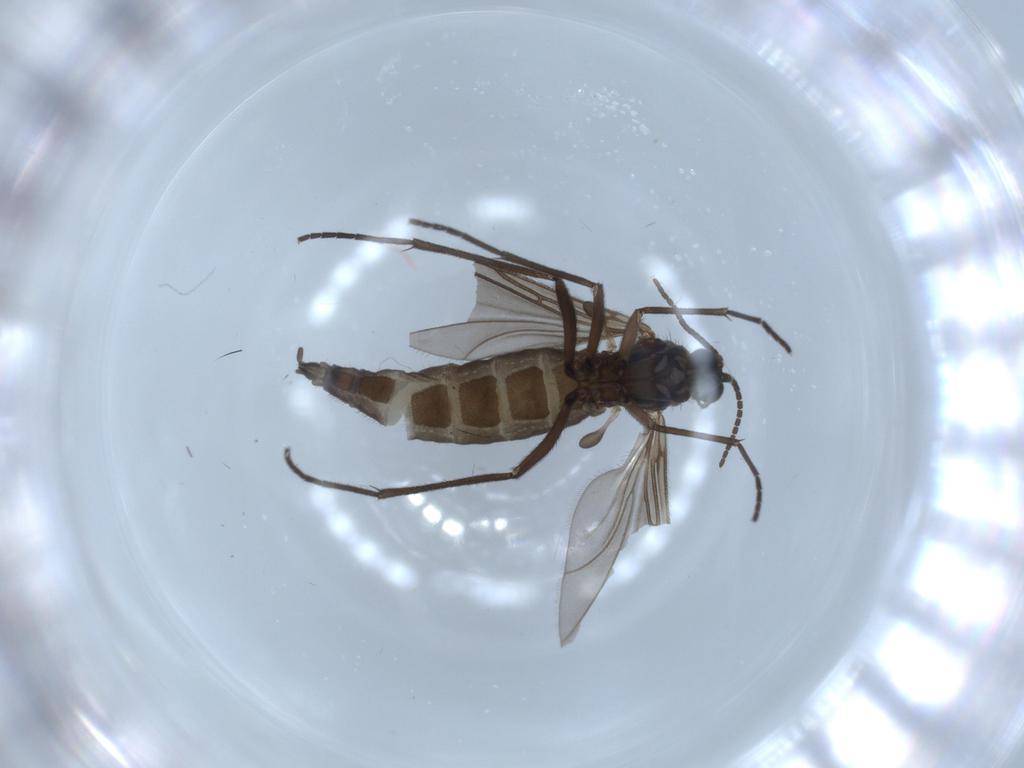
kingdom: Animalia
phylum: Arthropoda
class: Insecta
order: Diptera
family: Sciaridae
